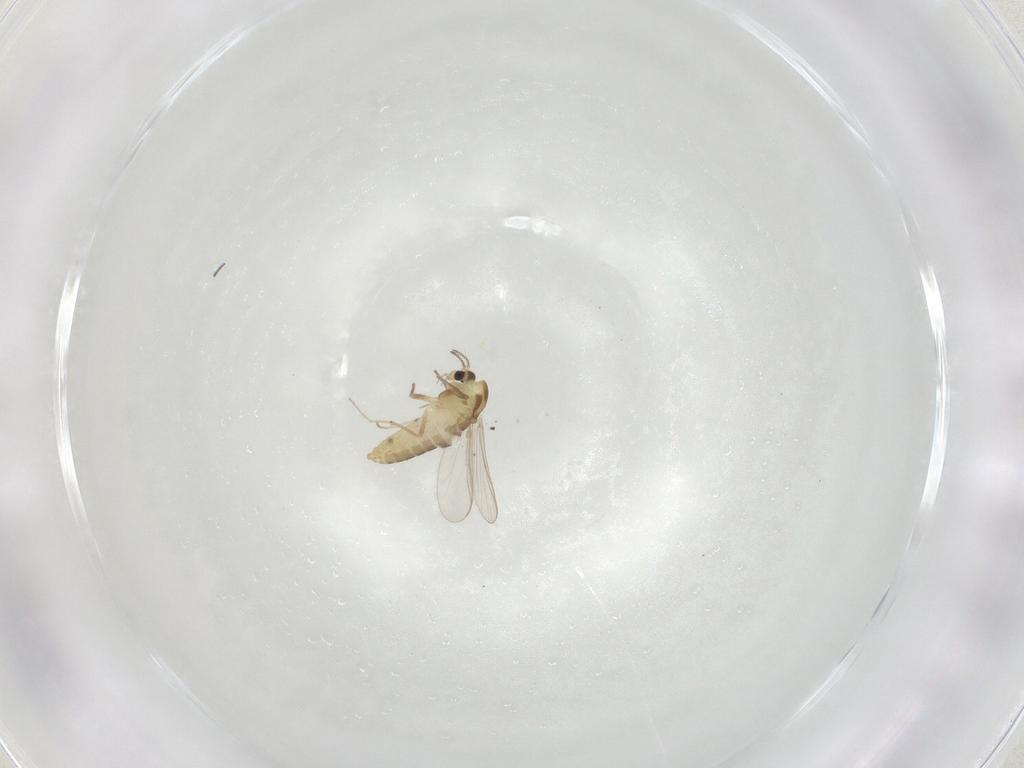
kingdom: Animalia
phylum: Arthropoda
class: Insecta
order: Diptera
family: Chironomidae
